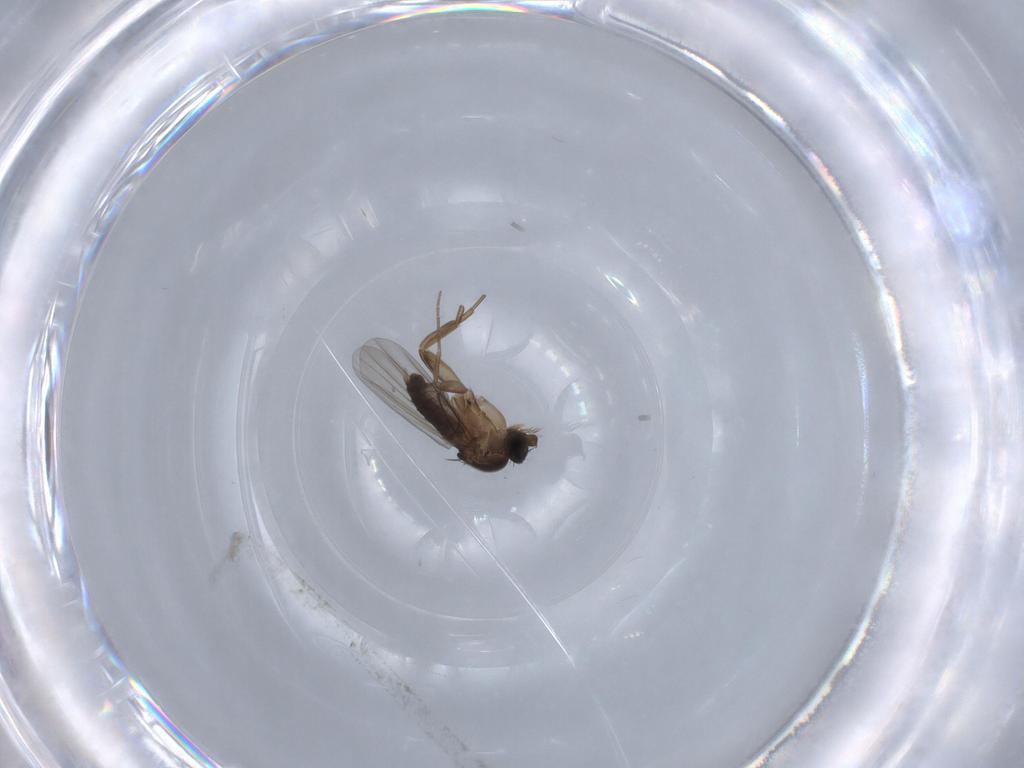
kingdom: Animalia
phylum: Arthropoda
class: Insecta
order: Diptera
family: Phoridae
